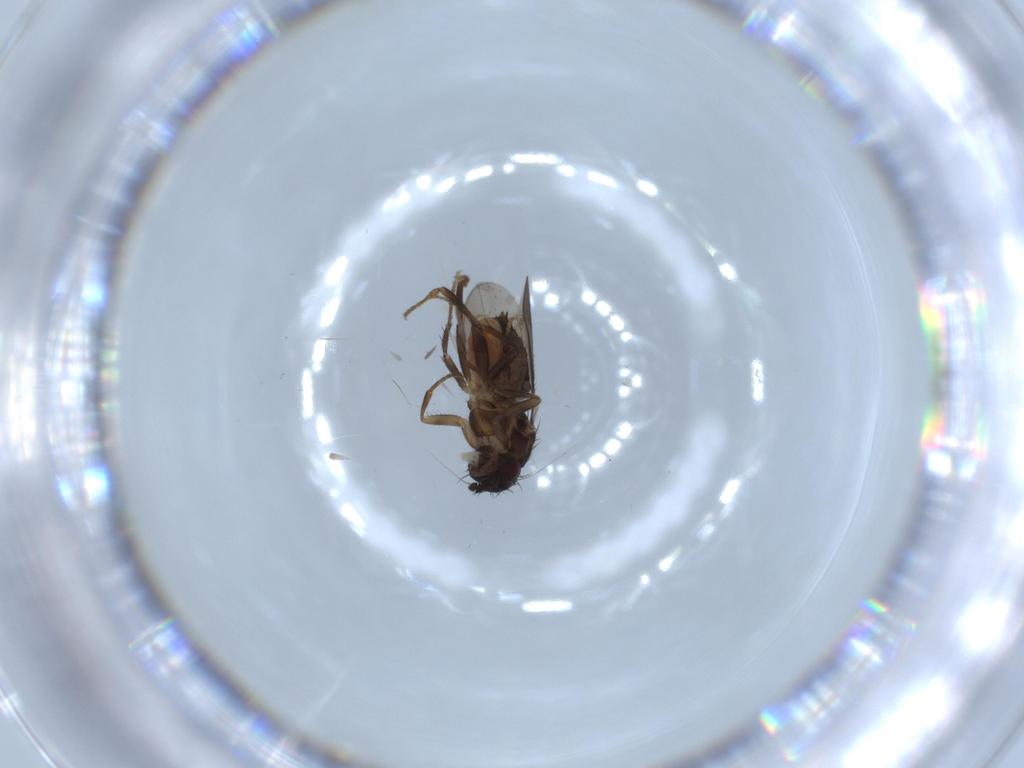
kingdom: Animalia
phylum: Arthropoda
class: Insecta
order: Diptera
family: Sphaeroceridae
